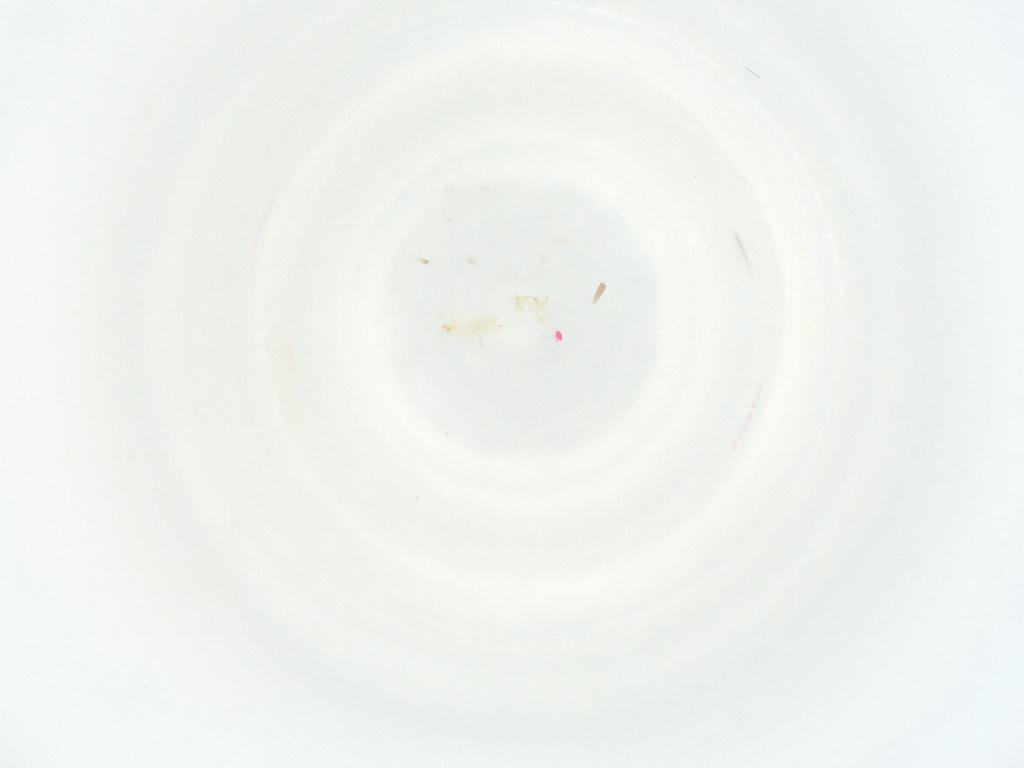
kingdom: Animalia
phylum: Arthropoda
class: Arachnida
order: Mesostigmata
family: Phytoseiidae
